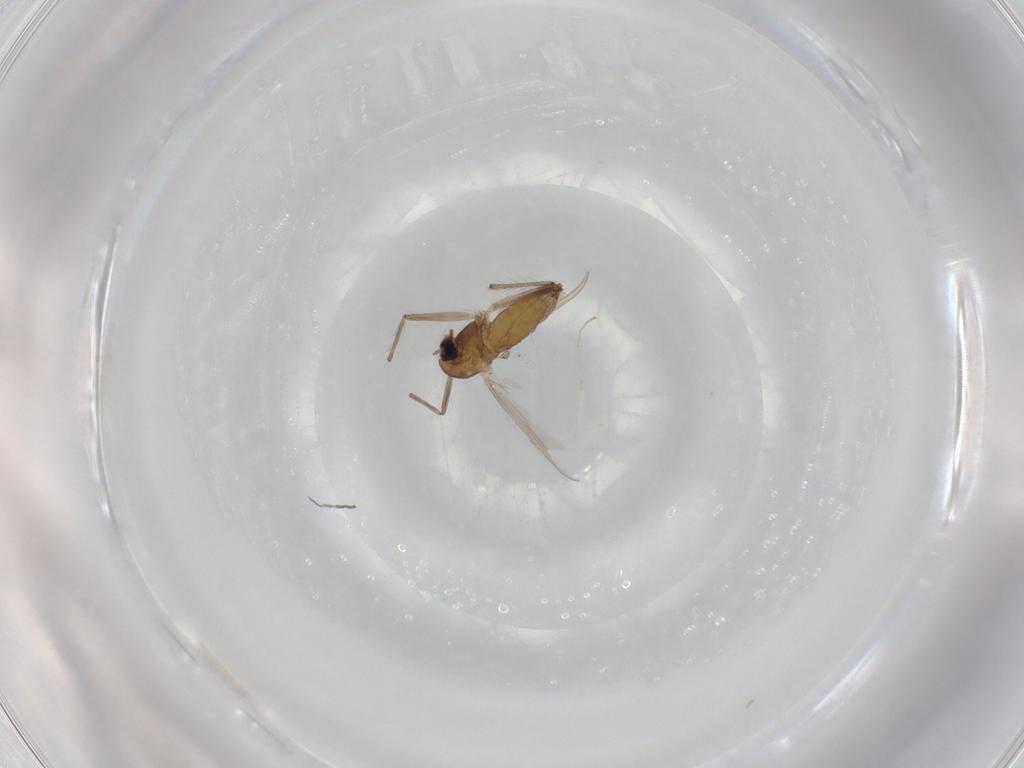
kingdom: Animalia
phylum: Arthropoda
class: Insecta
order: Diptera
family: Chironomidae
